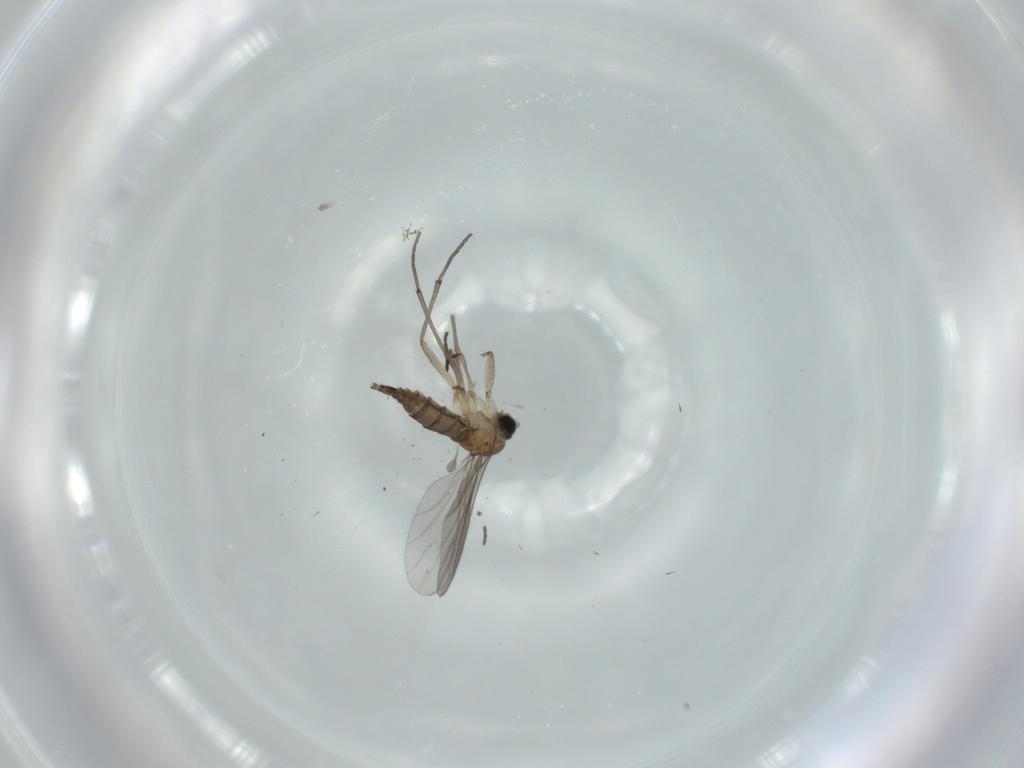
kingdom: Animalia
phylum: Arthropoda
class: Insecta
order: Diptera
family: Sciaridae
